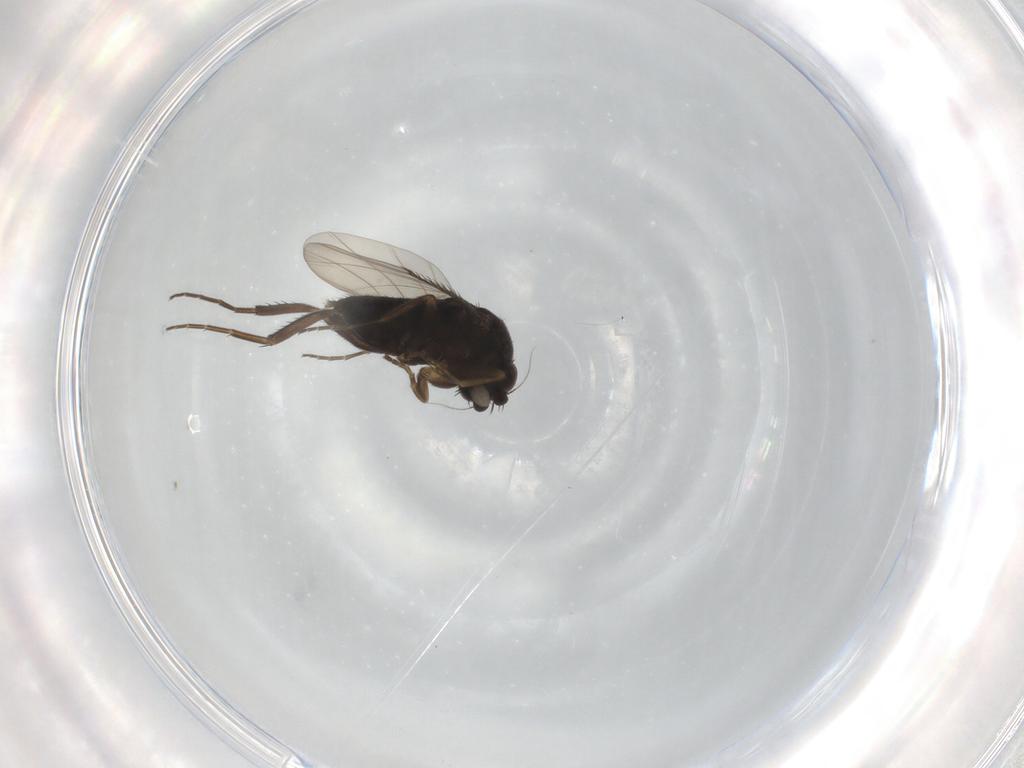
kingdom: Animalia
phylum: Arthropoda
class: Insecta
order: Diptera
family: Phoridae
